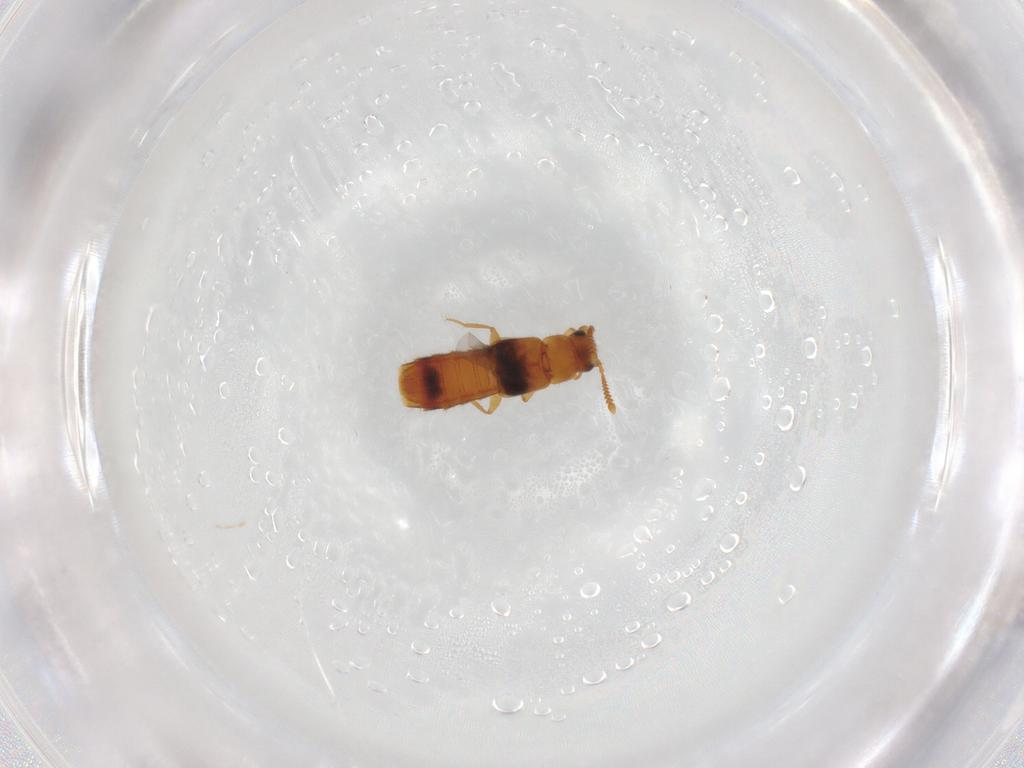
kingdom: Animalia
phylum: Arthropoda
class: Insecta
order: Coleoptera
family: Staphylinidae
